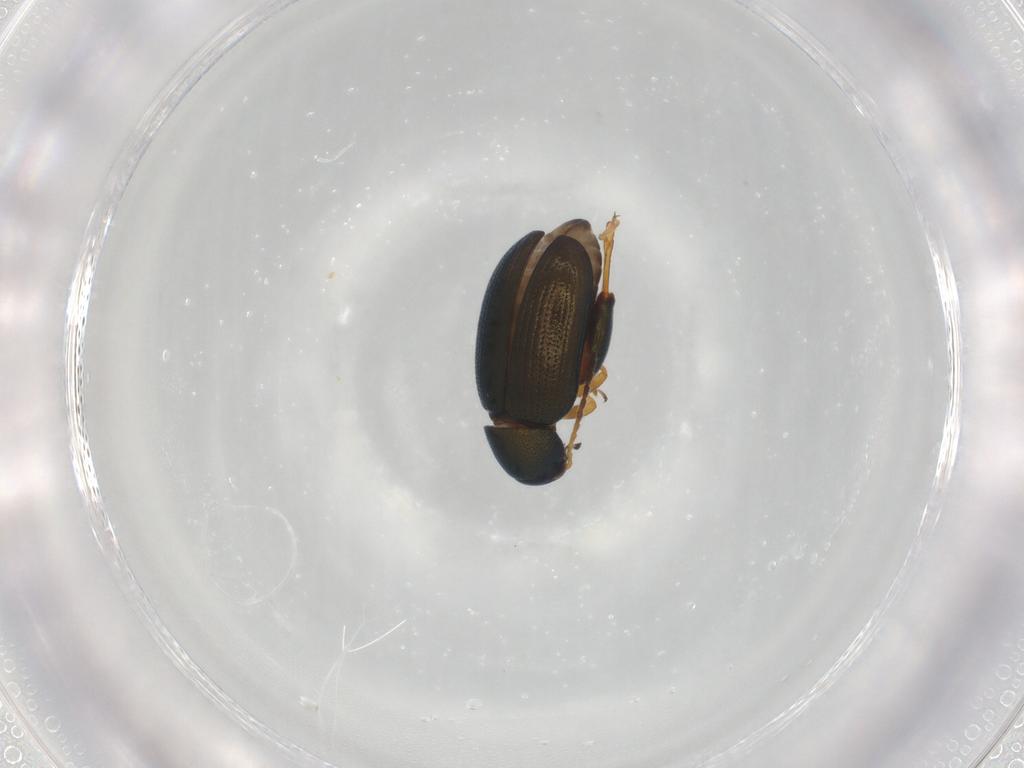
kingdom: Animalia
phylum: Arthropoda
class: Insecta
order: Coleoptera
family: Chrysomelidae
